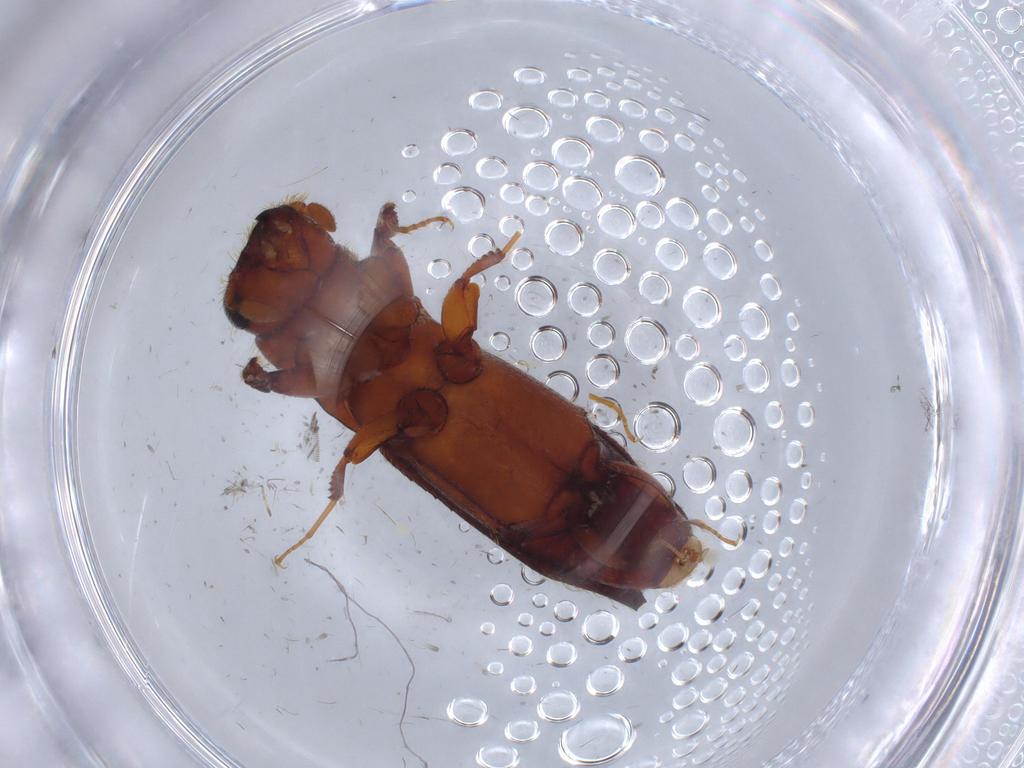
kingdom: Animalia
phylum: Arthropoda
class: Insecta
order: Coleoptera
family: Curculionidae
